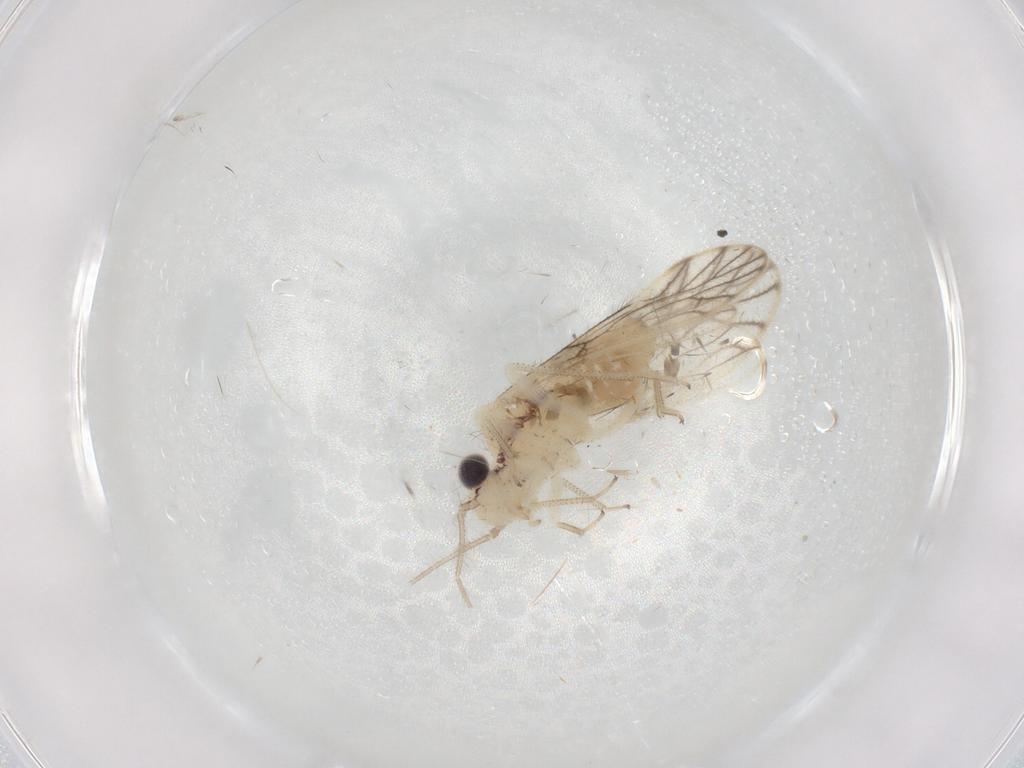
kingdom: Animalia
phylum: Arthropoda
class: Insecta
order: Psocodea
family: Philotarsidae
